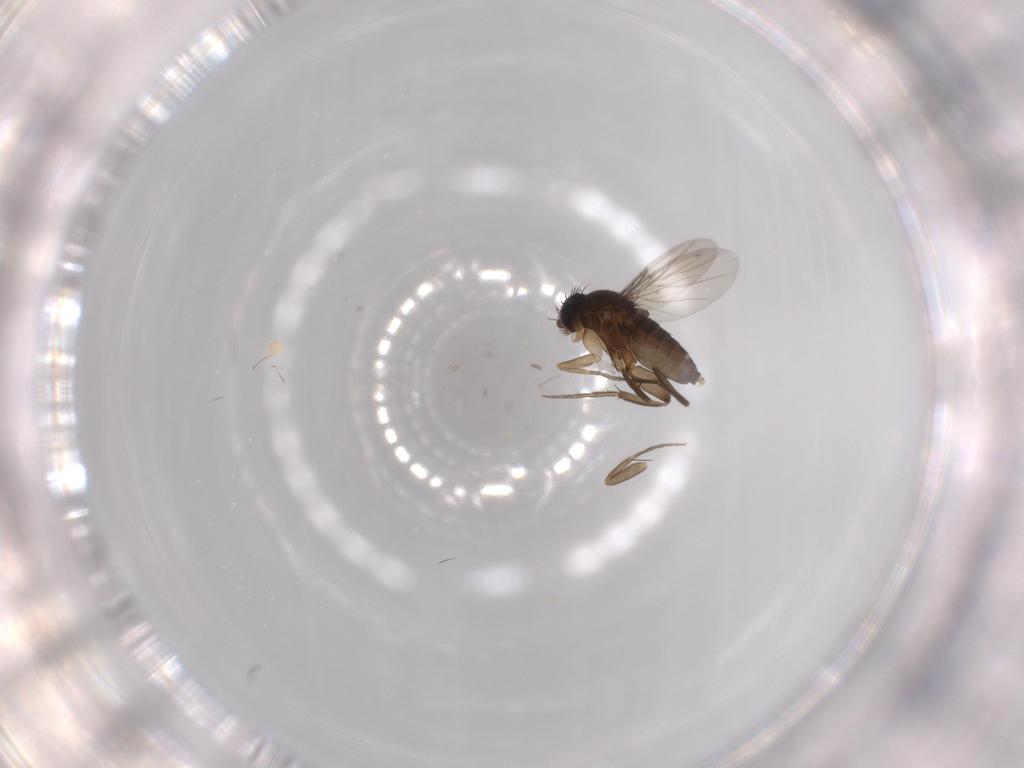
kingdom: Animalia
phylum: Arthropoda
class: Insecta
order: Diptera
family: Phoridae
